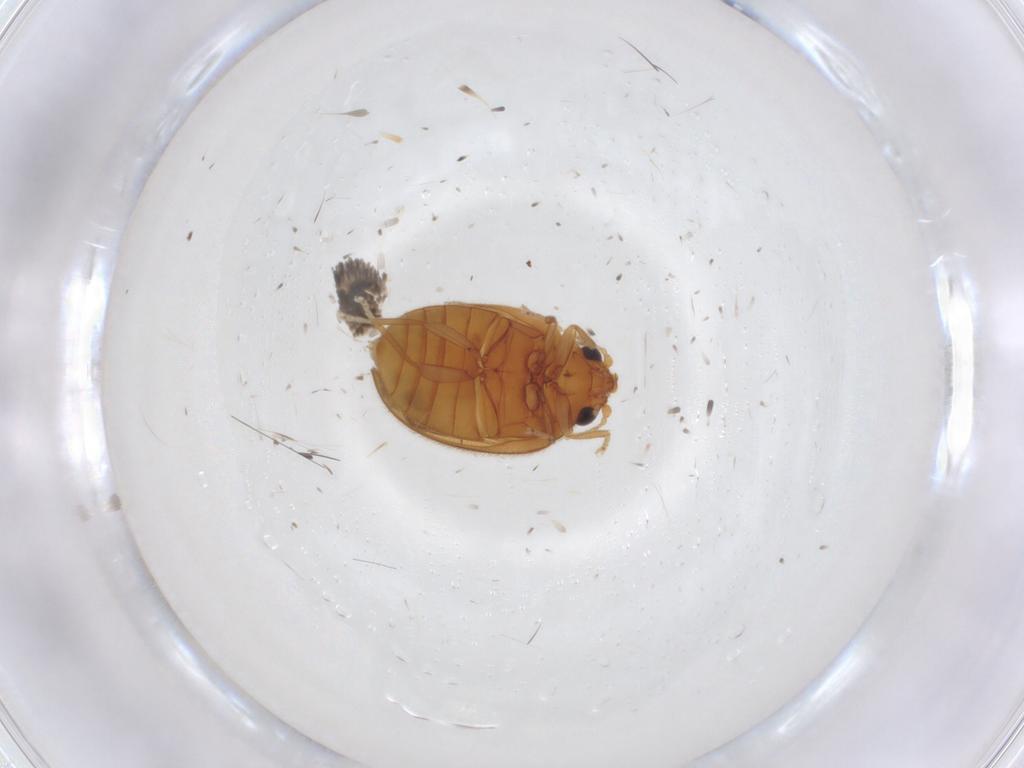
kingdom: Animalia
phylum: Arthropoda
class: Insecta
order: Coleoptera
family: Scirtidae
